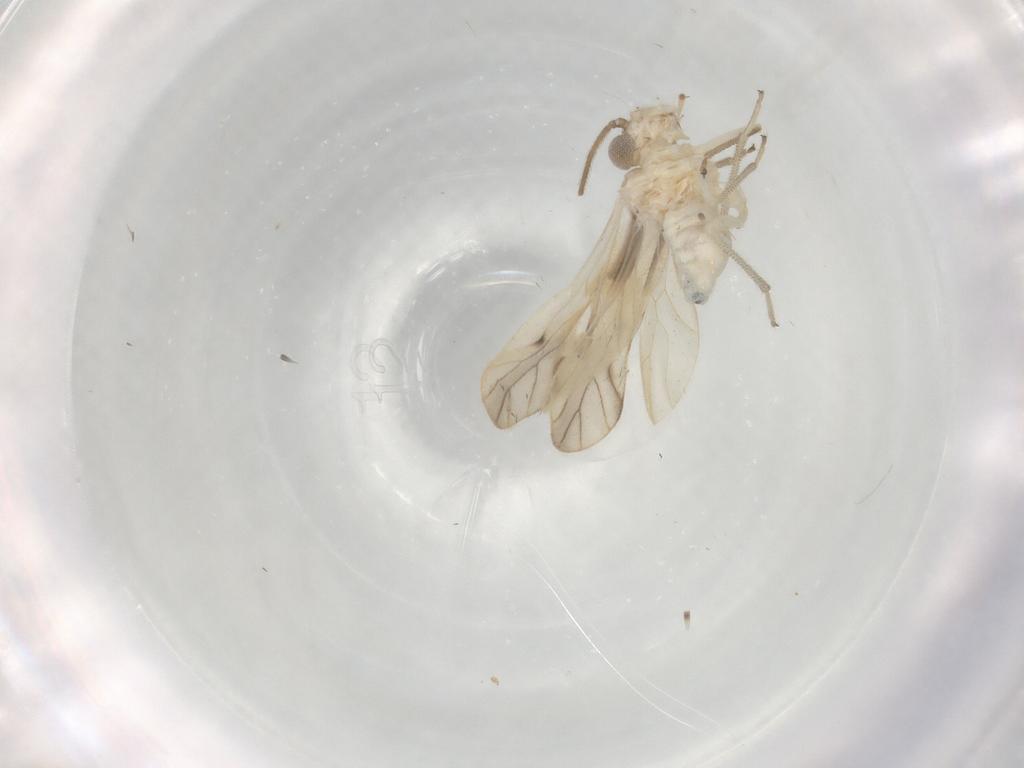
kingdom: Animalia
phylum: Arthropoda
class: Insecta
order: Psocodea
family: Caeciliusidae
